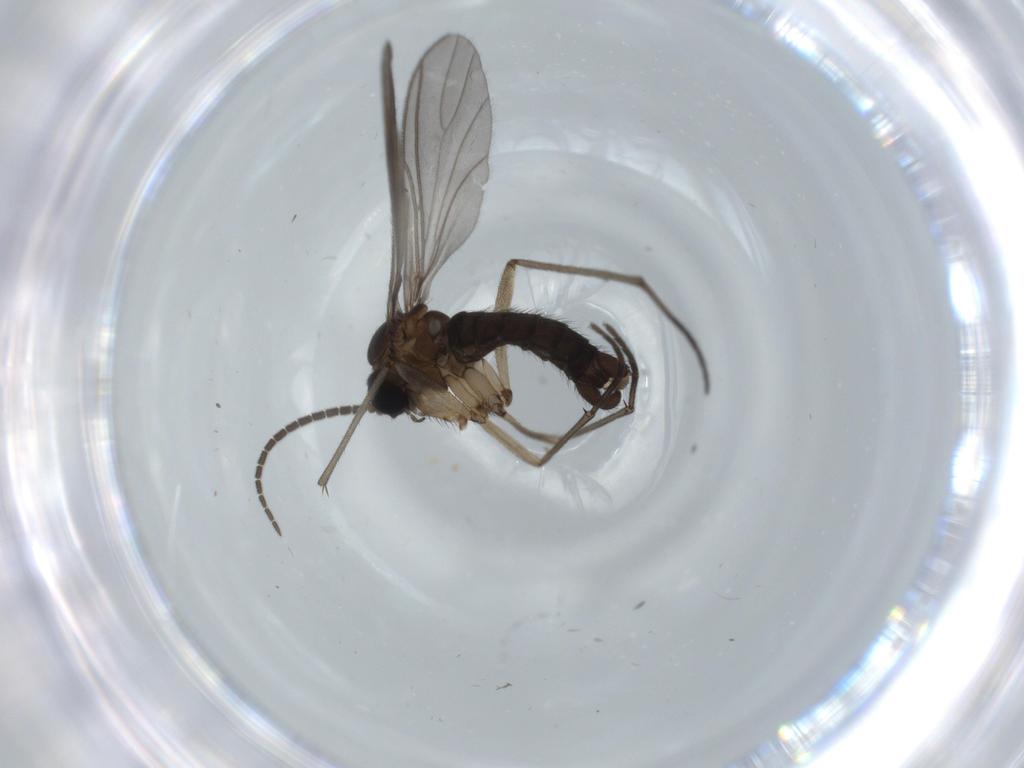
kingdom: Animalia
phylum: Arthropoda
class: Insecta
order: Diptera
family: Sciaridae
